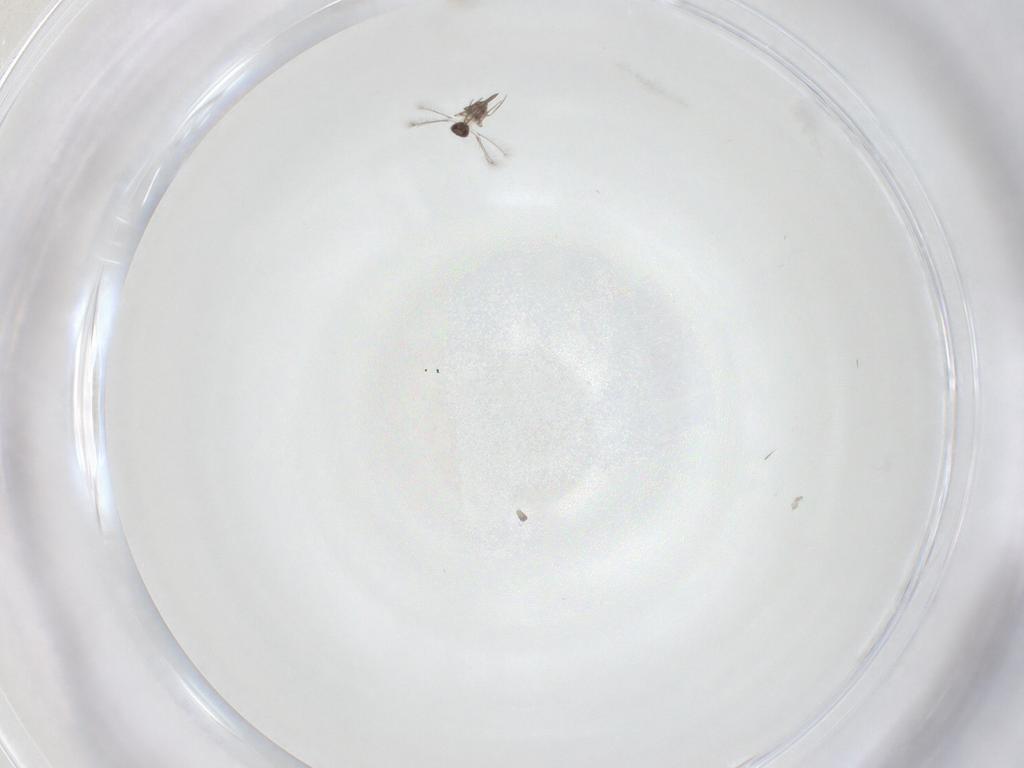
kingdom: Animalia
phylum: Arthropoda
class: Insecta
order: Hymenoptera
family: Mymaridae
